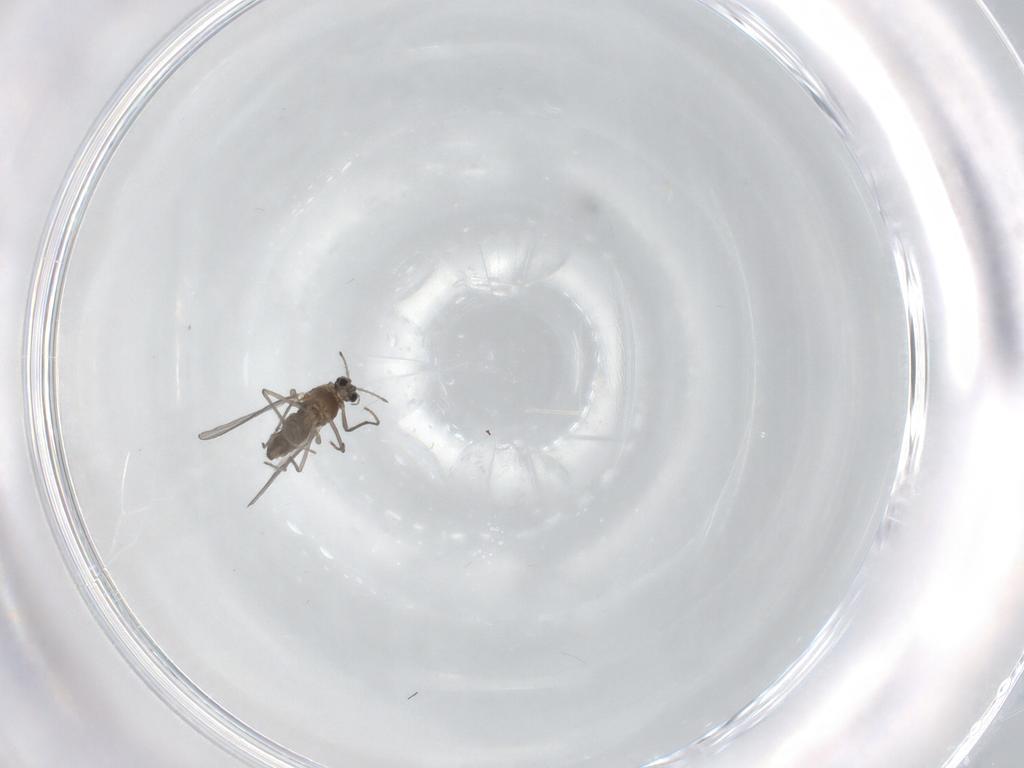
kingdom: Animalia
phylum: Arthropoda
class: Insecta
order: Diptera
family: Chironomidae
